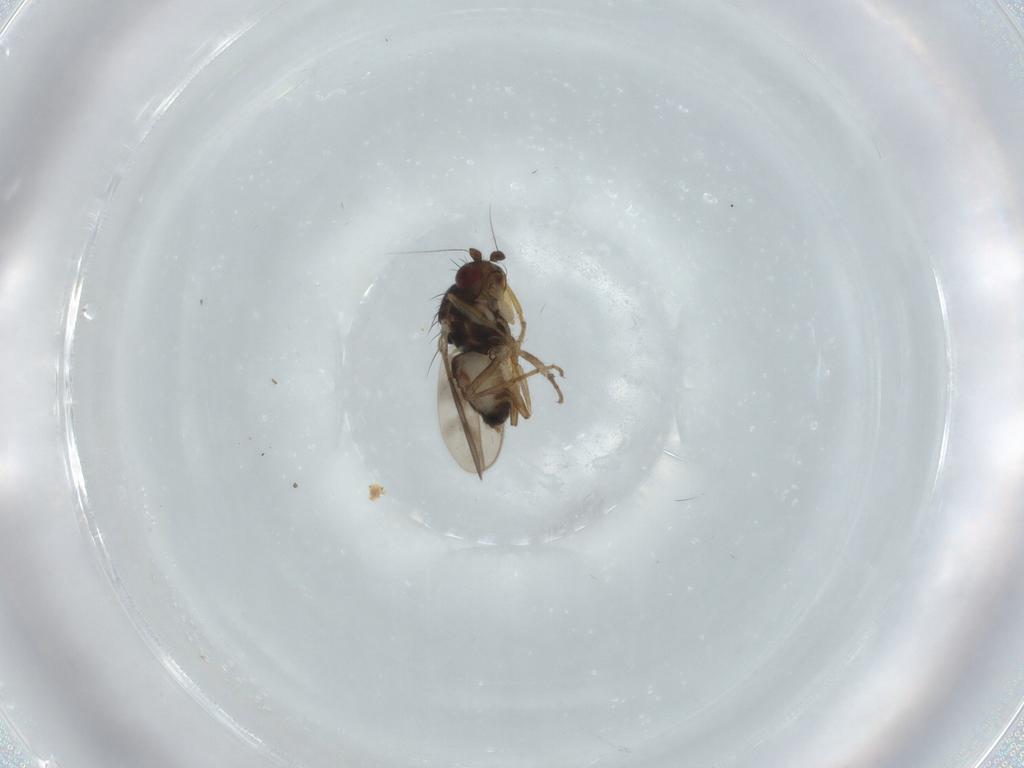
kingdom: Animalia
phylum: Arthropoda
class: Insecta
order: Diptera
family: Sphaeroceridae
